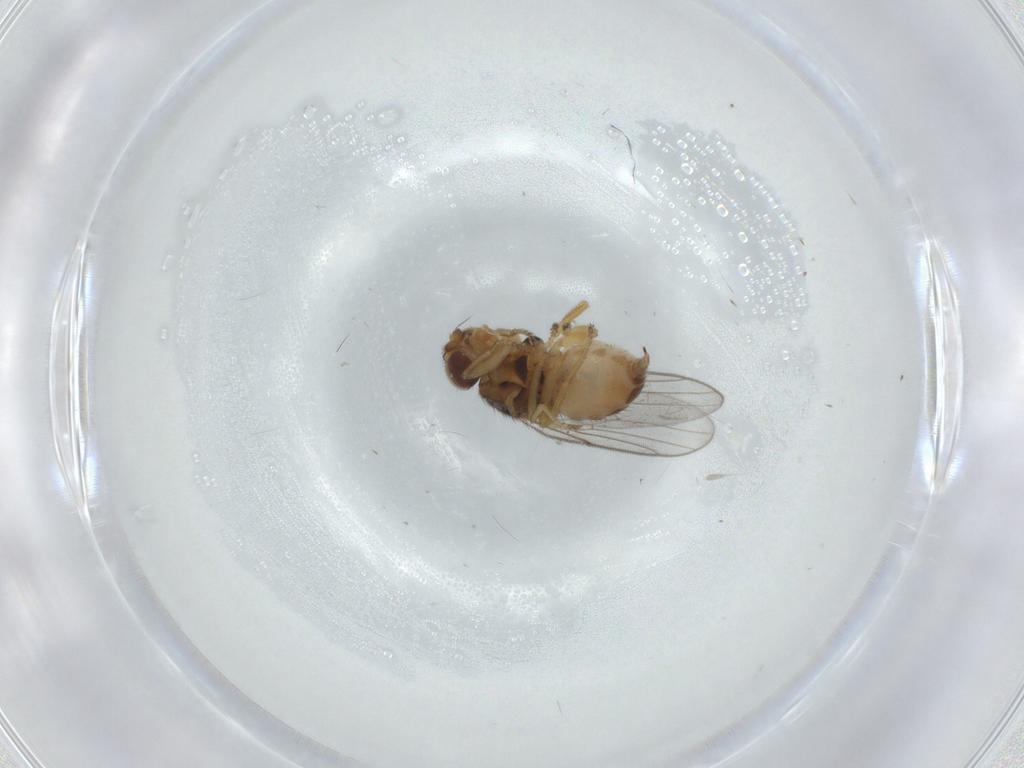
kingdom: Animalia
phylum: Arthropoda
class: Insecta
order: Diptera
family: Chloropidae
